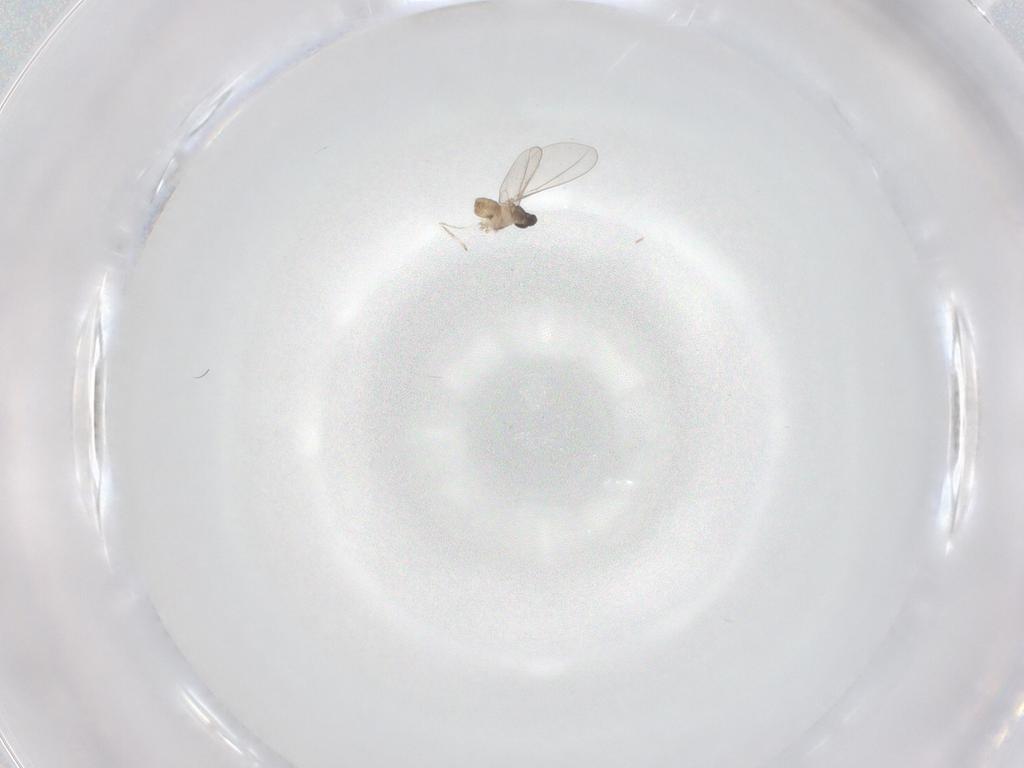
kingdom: Animalia
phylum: Arthropoda
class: Insecta
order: Diptera
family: Cecidomyiidae
